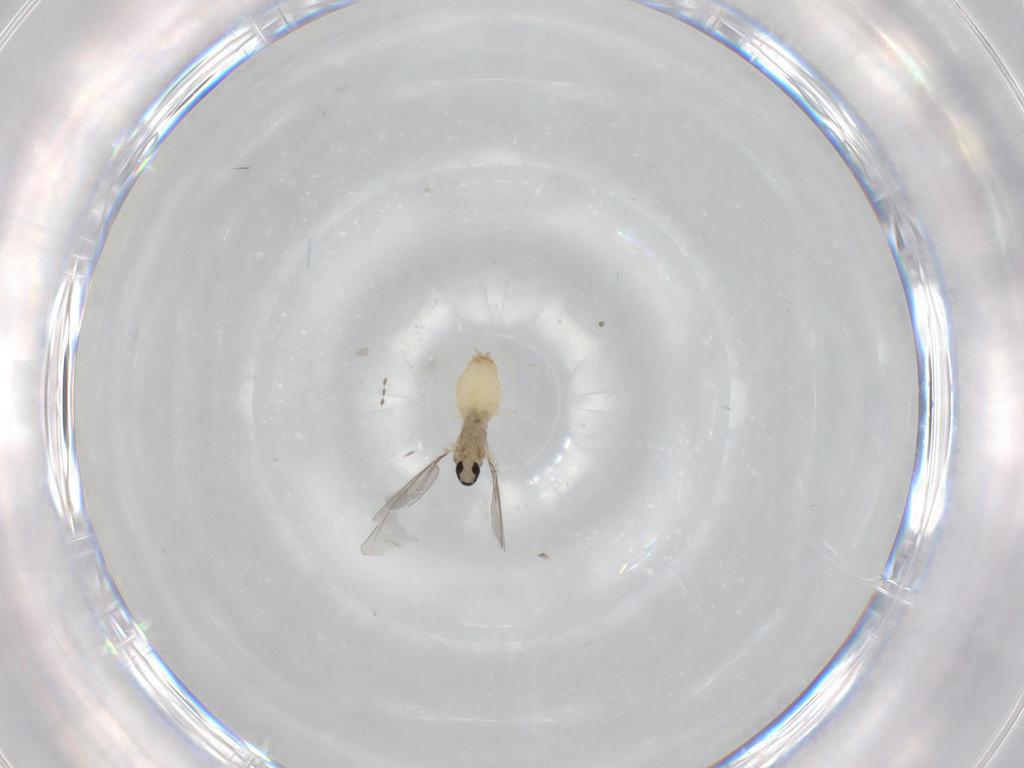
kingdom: Animalia
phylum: Arthropoda
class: Insecta
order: Diptera
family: Cecidomyiidae
